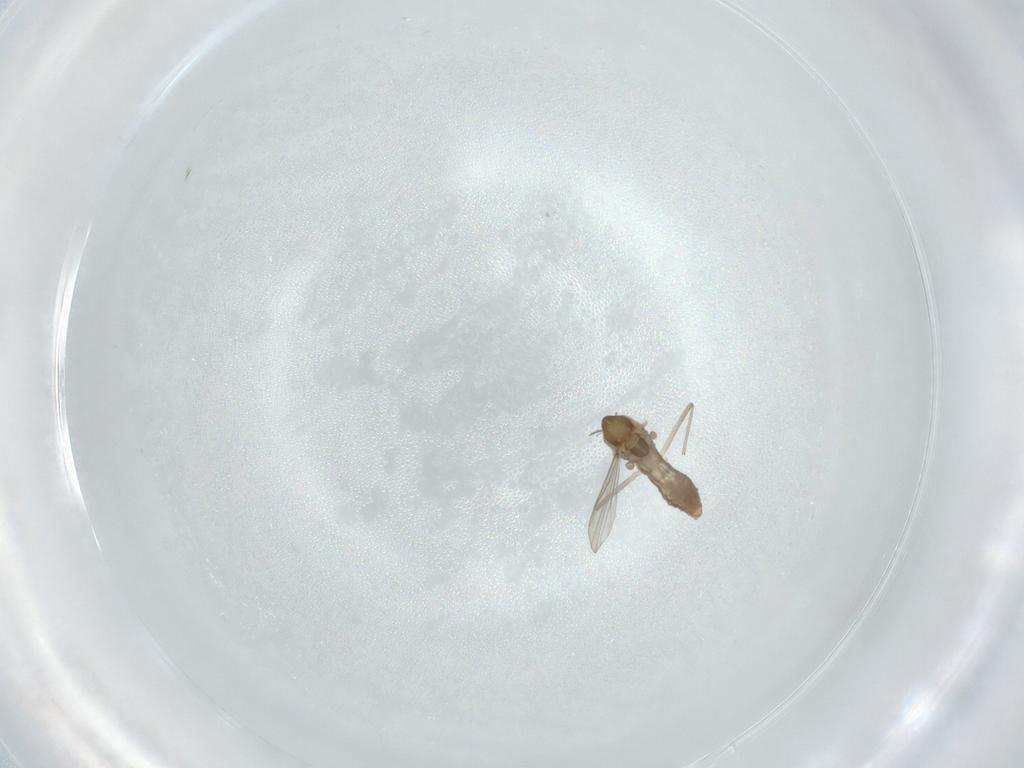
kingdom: Animalia
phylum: Arthropoda
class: Insecta
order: Diptera
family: Chironomidae
